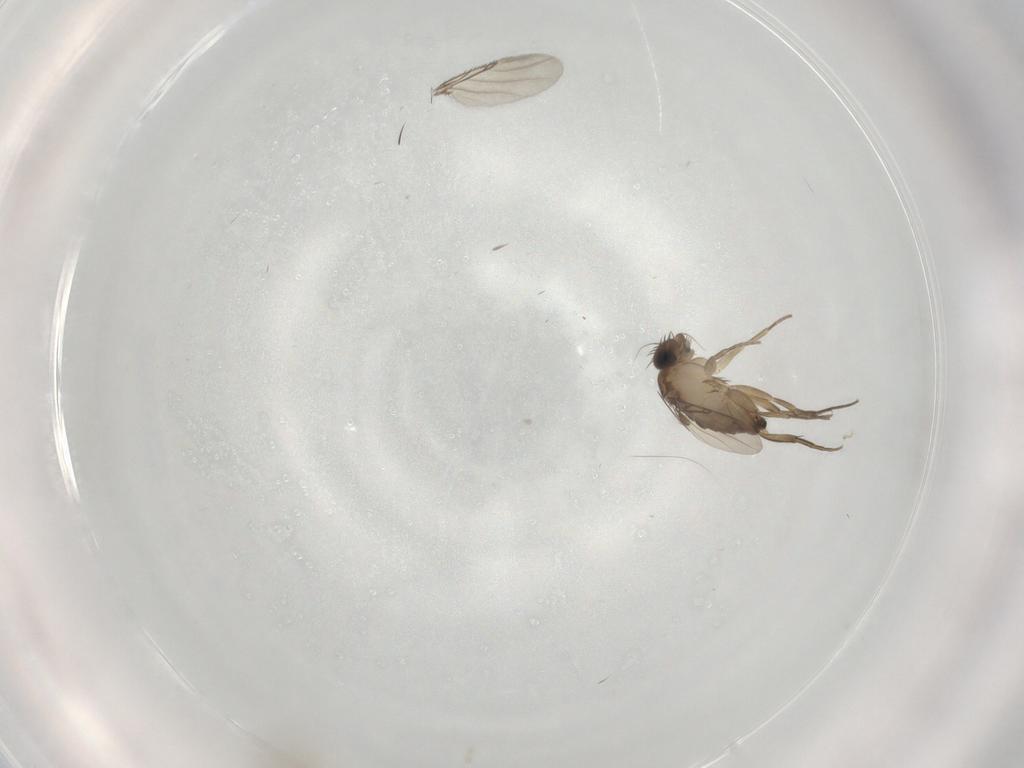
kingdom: Animalia
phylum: Arthropoda
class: Insecta
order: Diptera
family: Phoridae
